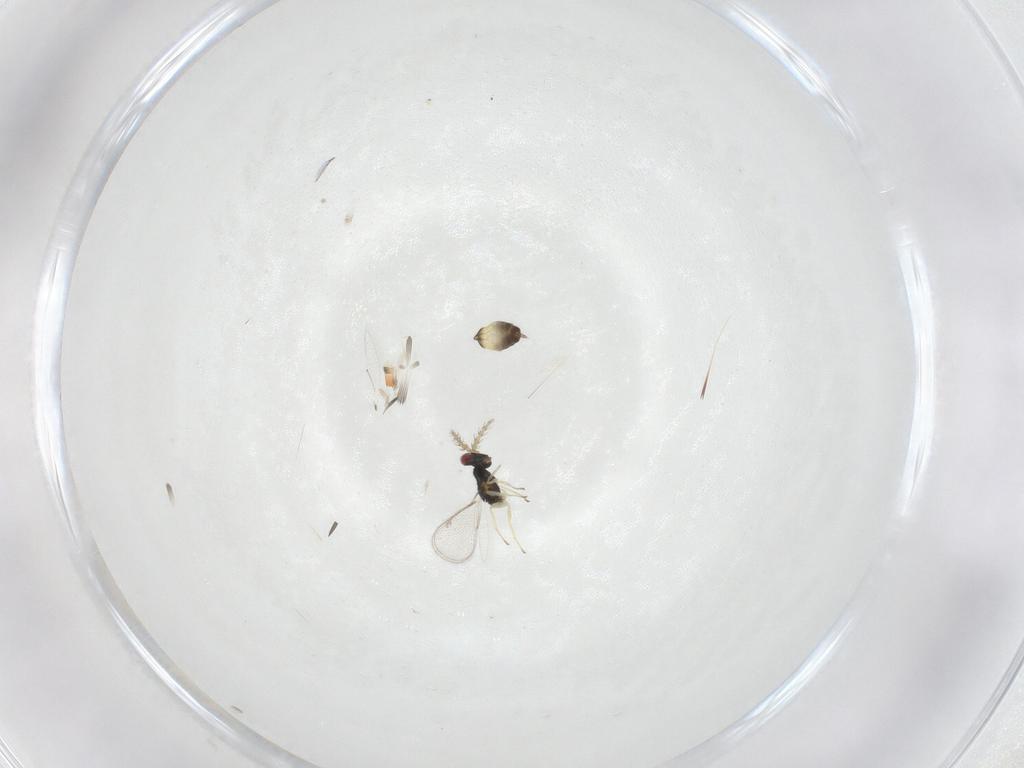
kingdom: Animalia
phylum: Arthropoda
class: Insecta
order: Hymenoptera
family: Eulophidae
